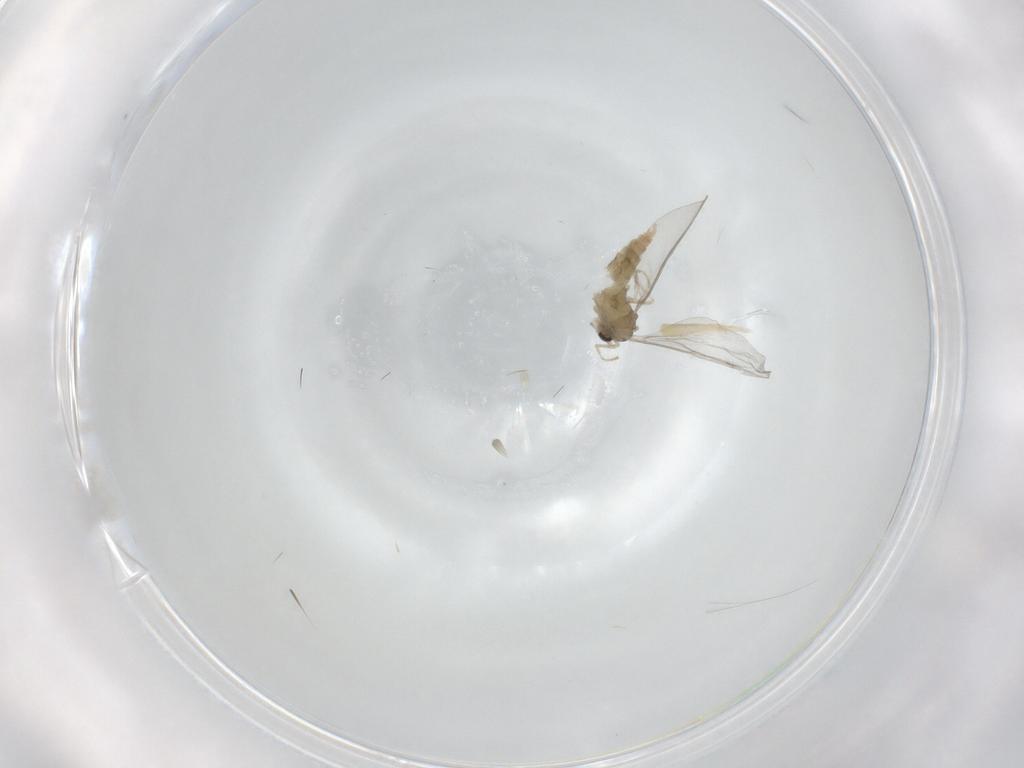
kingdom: Animalia
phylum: Arthropoda
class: Insecta
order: Diptera
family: Cecidomyiidae
